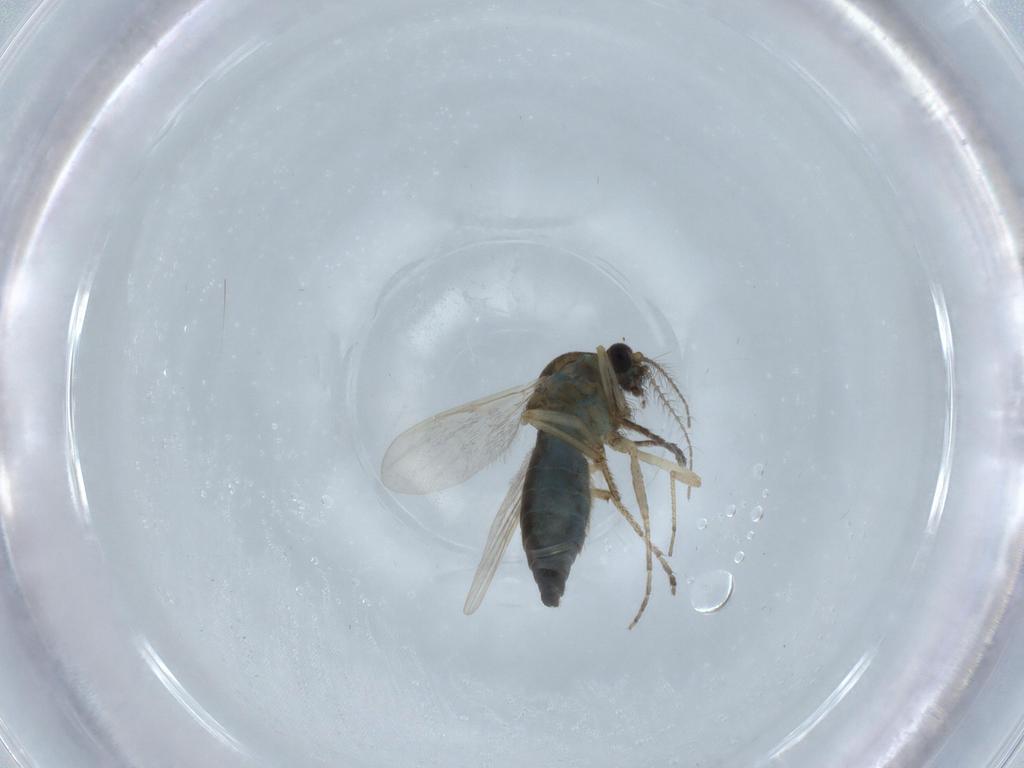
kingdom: Animalia
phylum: Arthropoda
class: Insecta
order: Diptera
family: Ceratopogonidae
